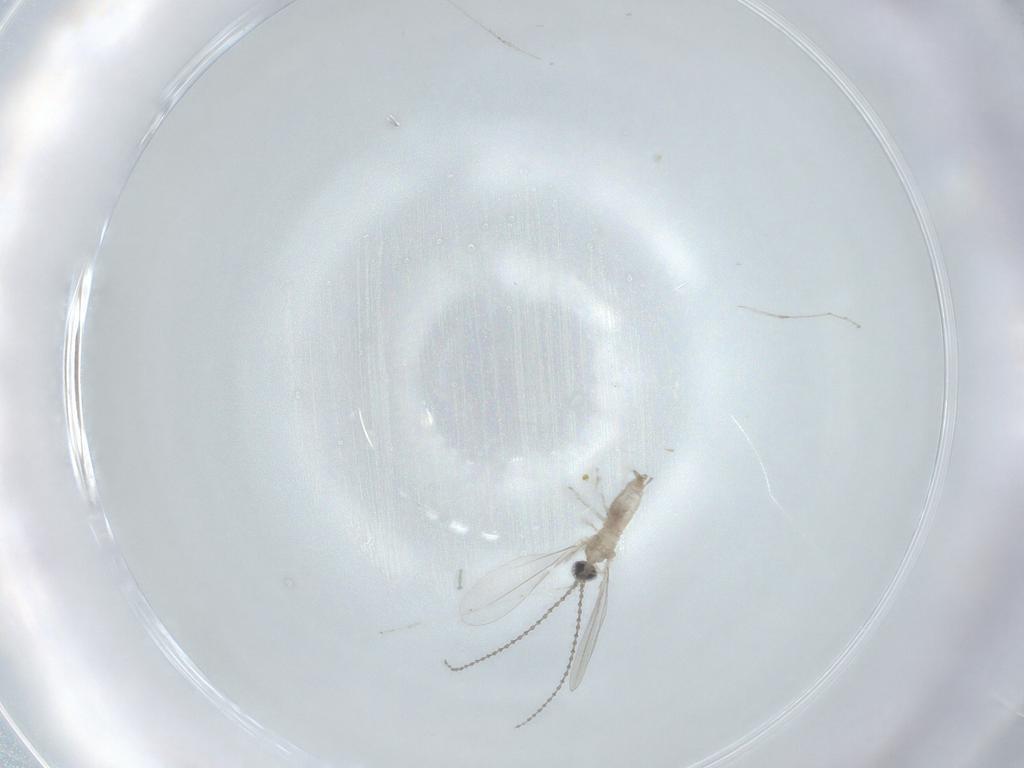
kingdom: Animalia
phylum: Arthropoda
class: Insecta
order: Diptera
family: Cecidomyiidae
